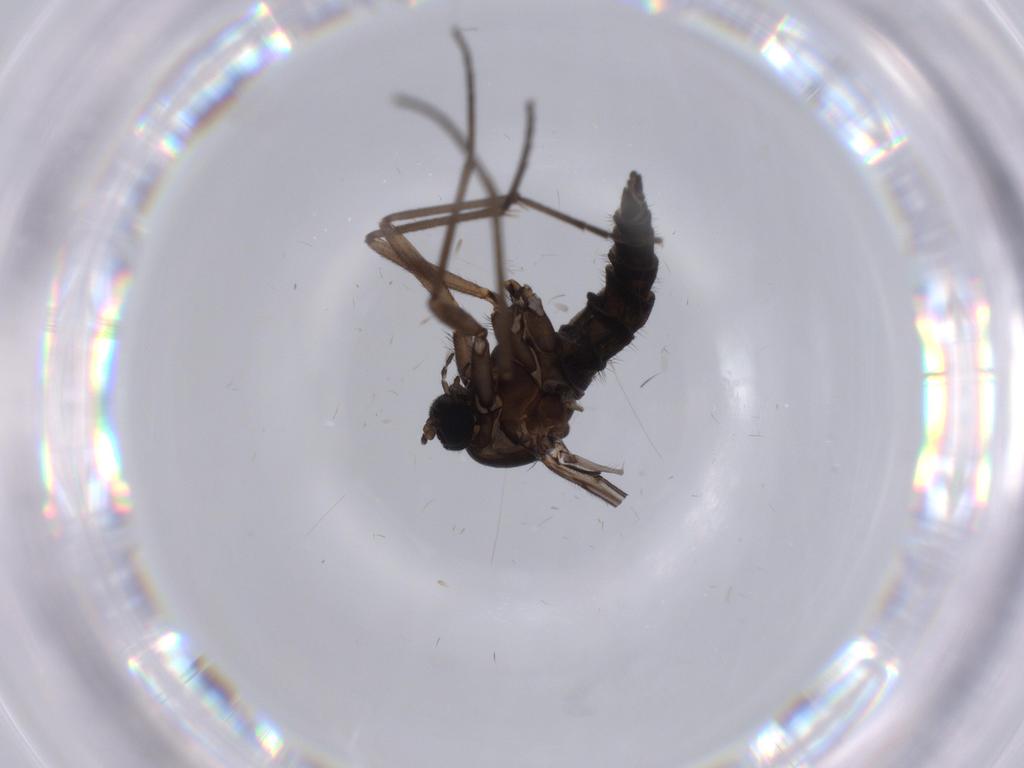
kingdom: Animalia
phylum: Arthropoda
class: Insecta
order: Diptera
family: Sciaridae
